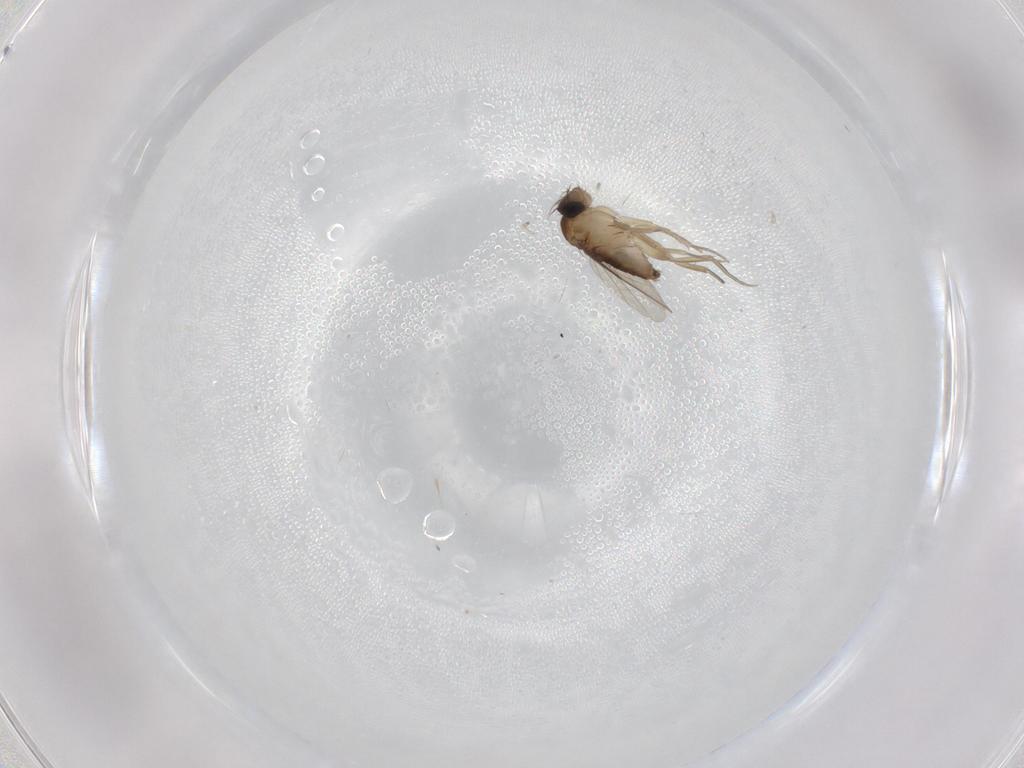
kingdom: Animalia
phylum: Arthropoda
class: Insecta
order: Diptera
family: Phoridae
